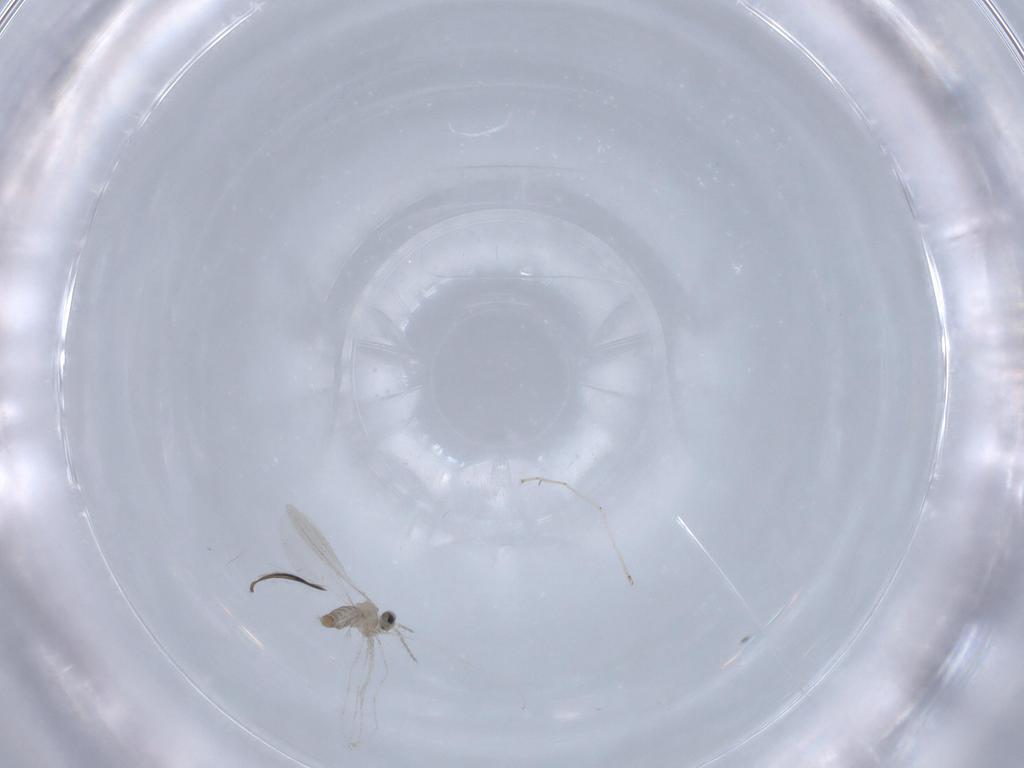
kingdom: Animalia
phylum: Arthropoda
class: Insecta
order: Diptera
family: Cecidomyiidae
